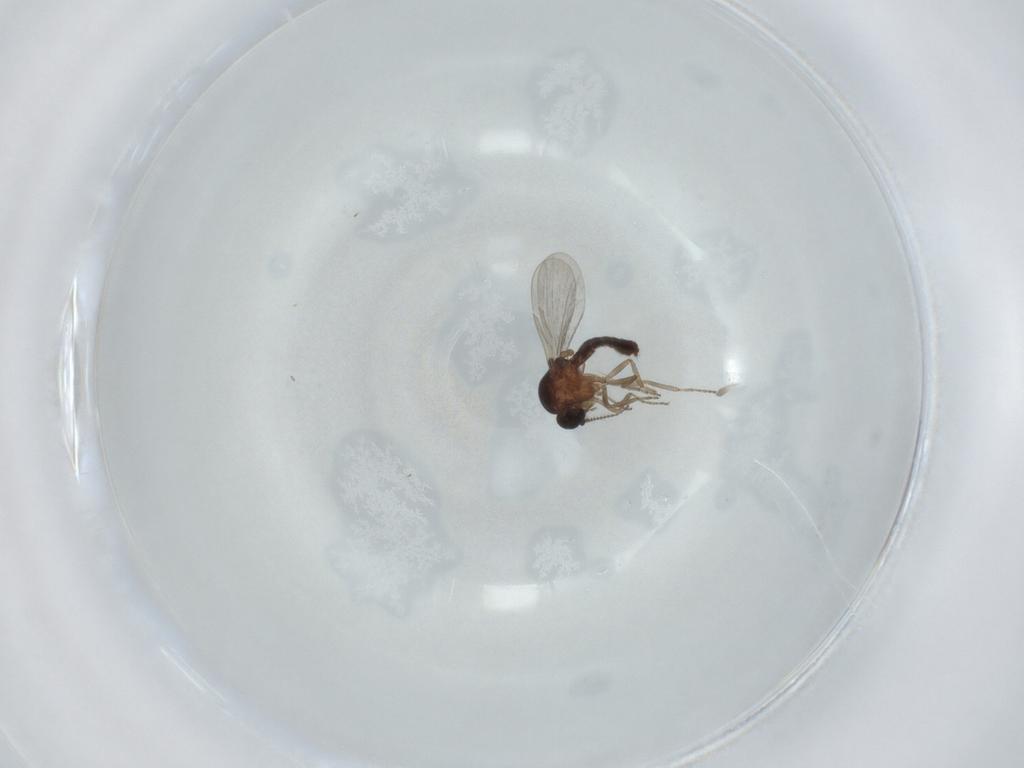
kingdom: Animalia
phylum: Arthropoda
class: Insecta
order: Diptera
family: Ceratopogonidae
